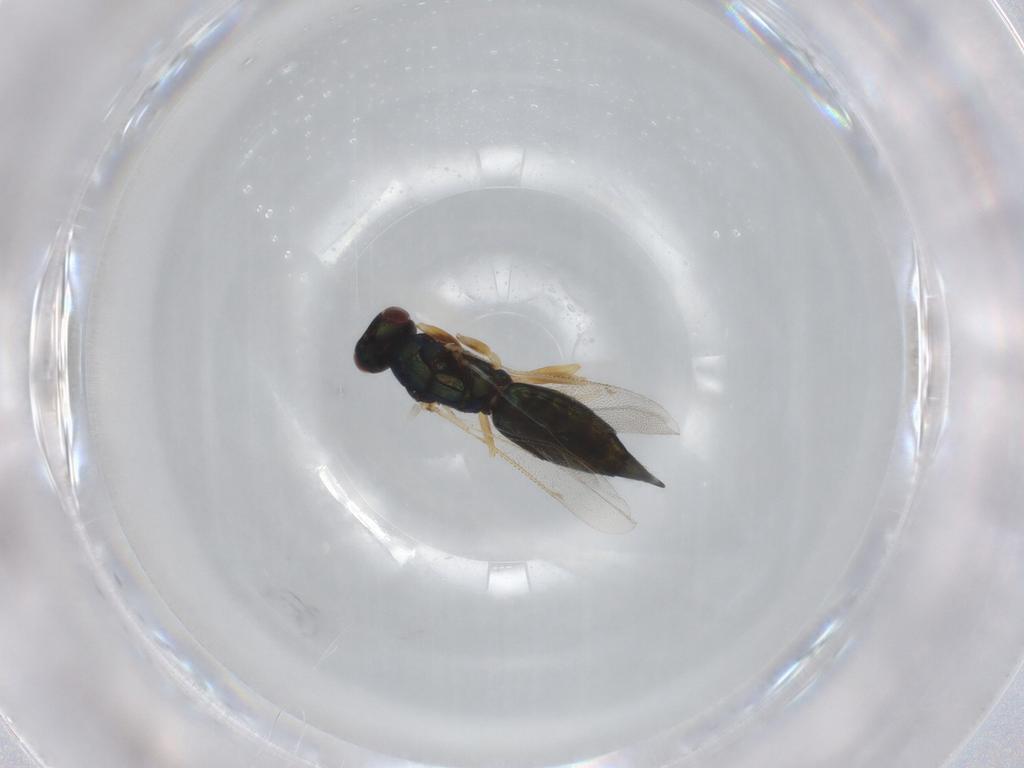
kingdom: Animalia
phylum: Arthropoda
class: Insecta
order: Hymenoptera
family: Eulophidae
